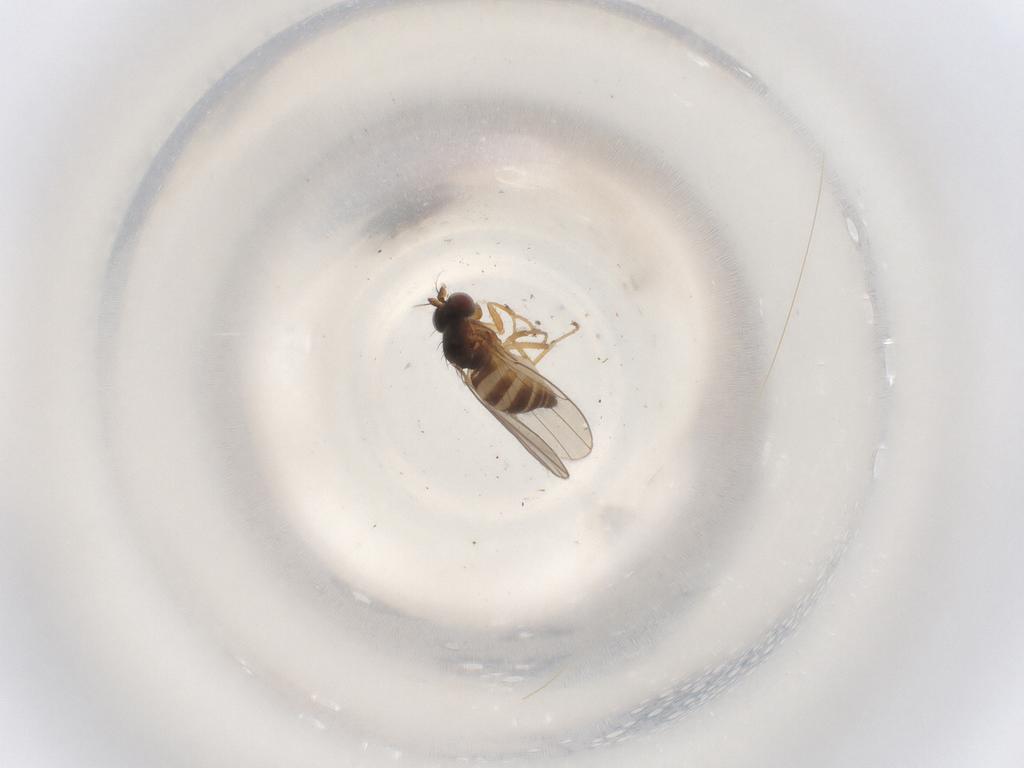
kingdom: Animalia
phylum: Arthropoda
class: Insecta
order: Diptera
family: Ephydridae
